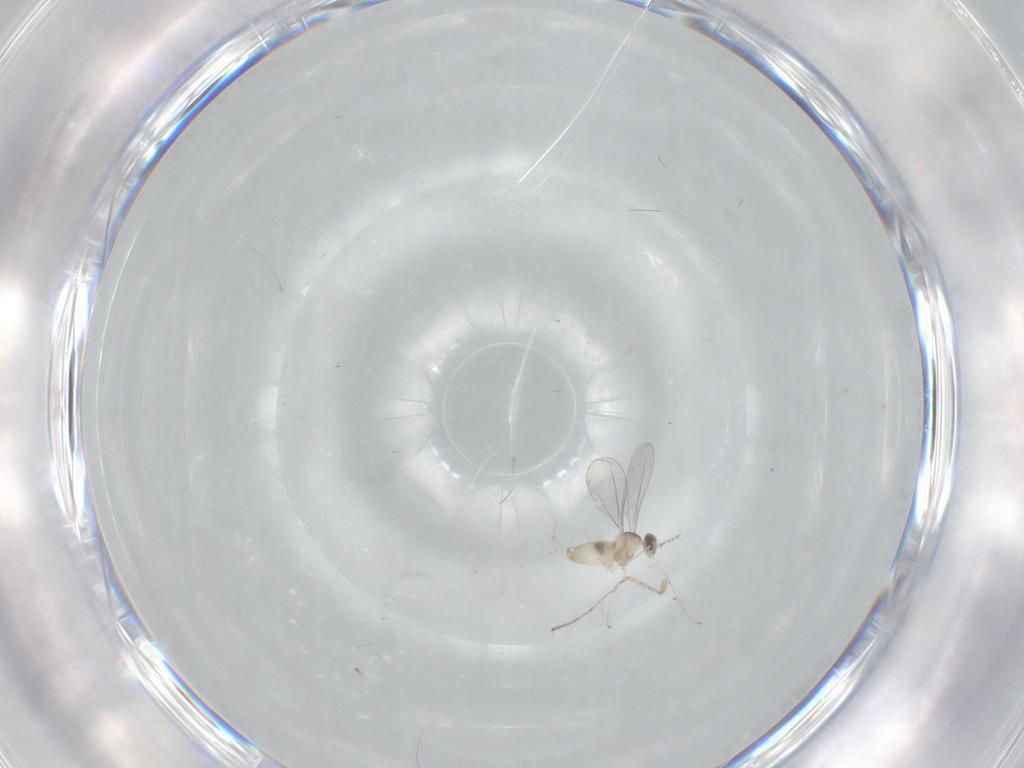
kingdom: Animalia
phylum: Arthropoda
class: Insecta
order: Diptera
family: Cecidomyiidae
